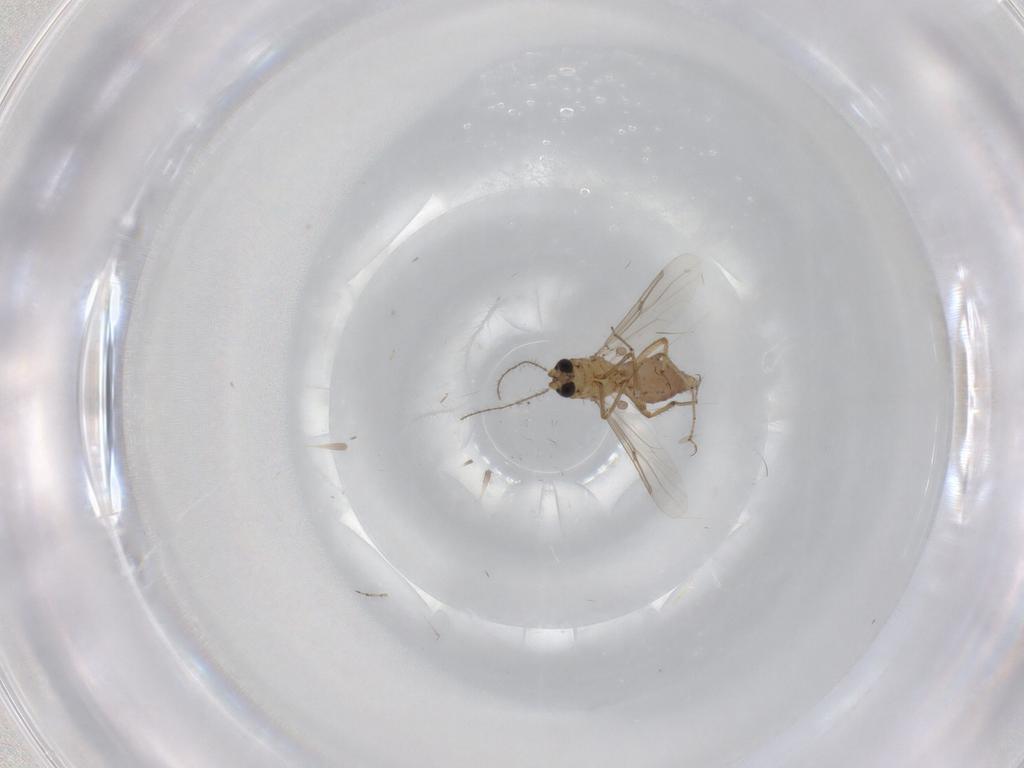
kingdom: Animalia
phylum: Arthropoda
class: Insecta
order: Diptera
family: Ceratopogonidae
